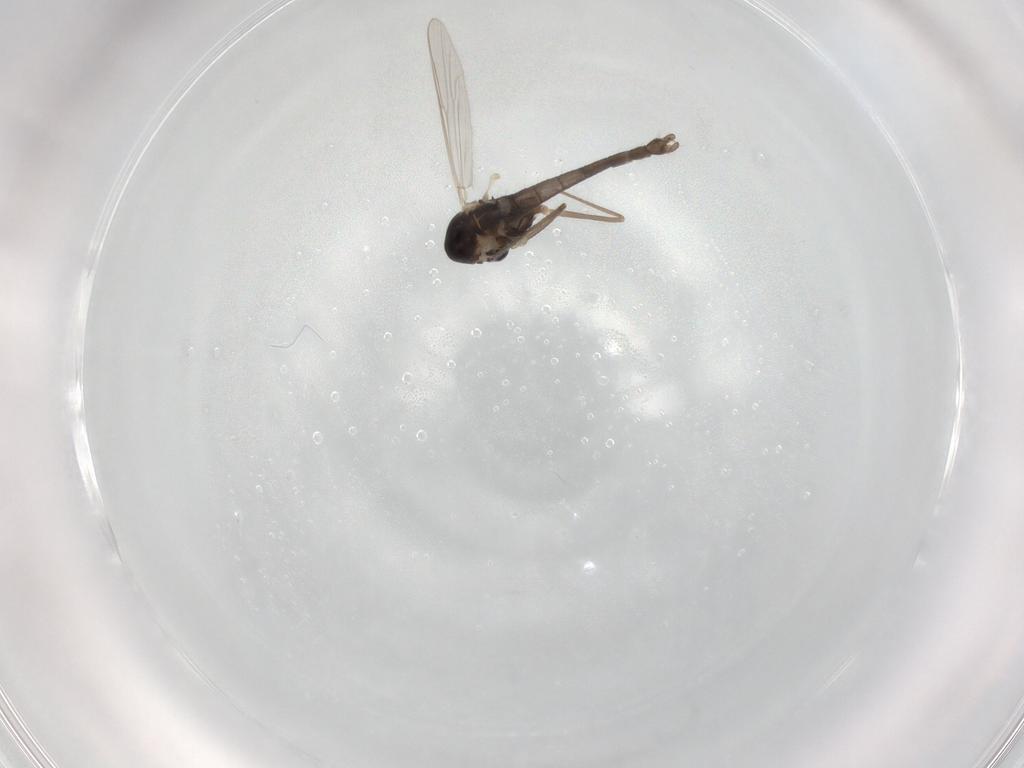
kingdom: Animalia
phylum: Arthropoda
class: Insecta
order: Diptera
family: Chironomidae
